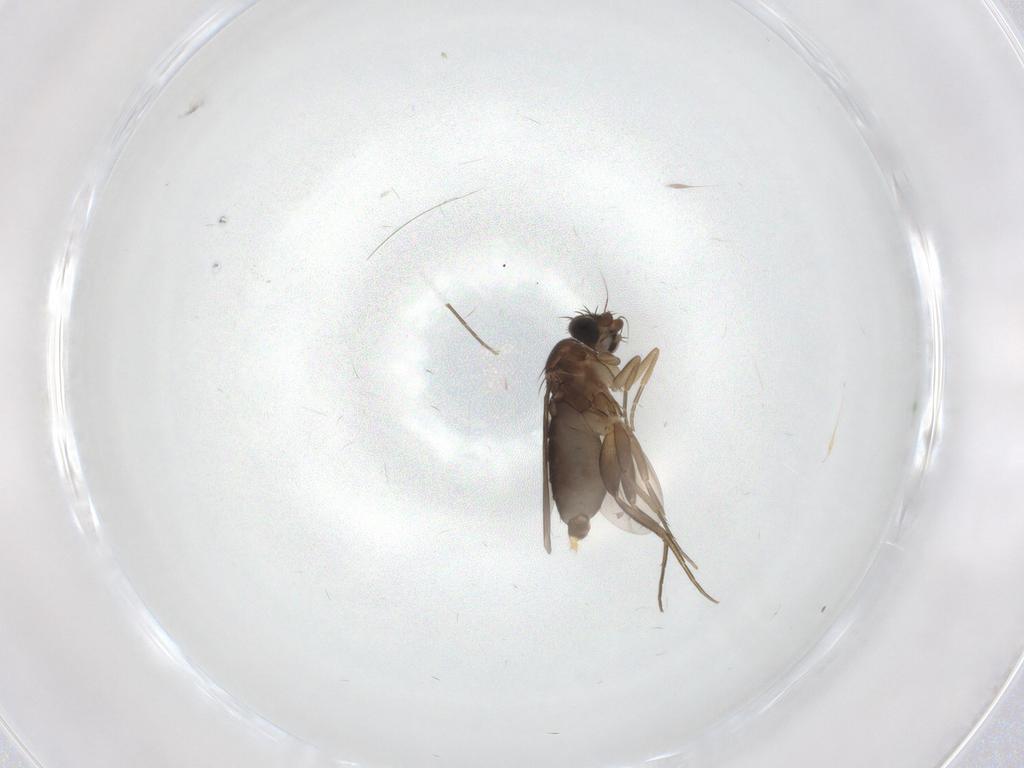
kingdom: Animalia
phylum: Arthropoda
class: Insecta
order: Diptera
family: Phoridae
